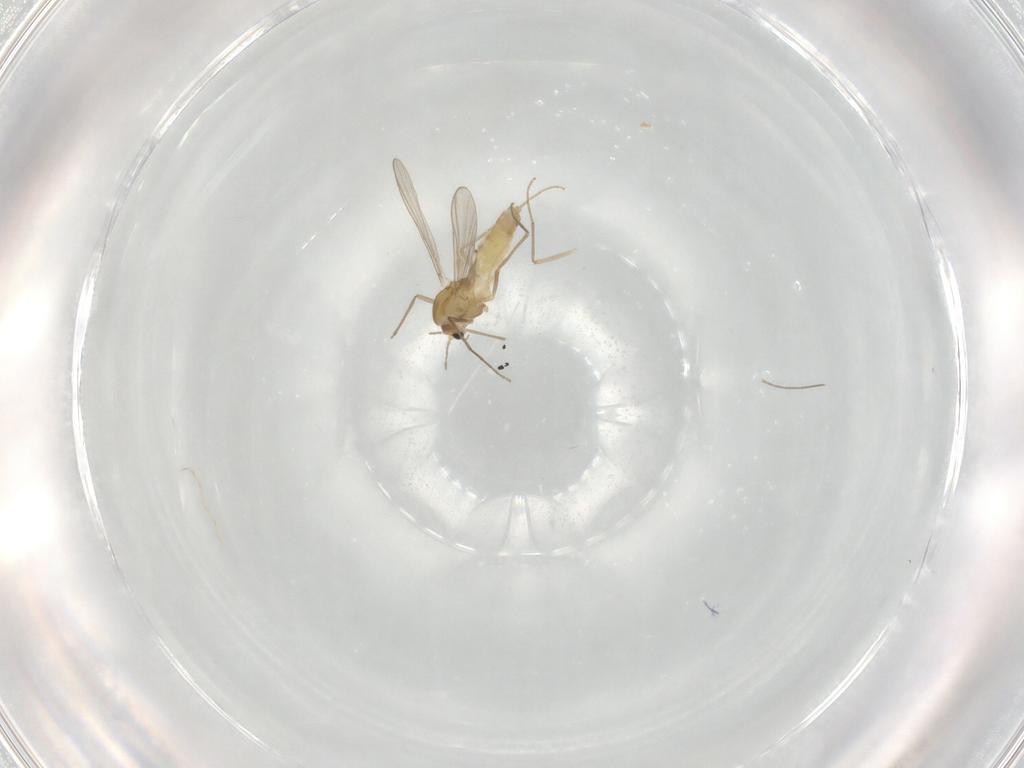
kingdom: Animalia
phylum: Arthropoda
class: Insecta
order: Diptera
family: Chironomidae
